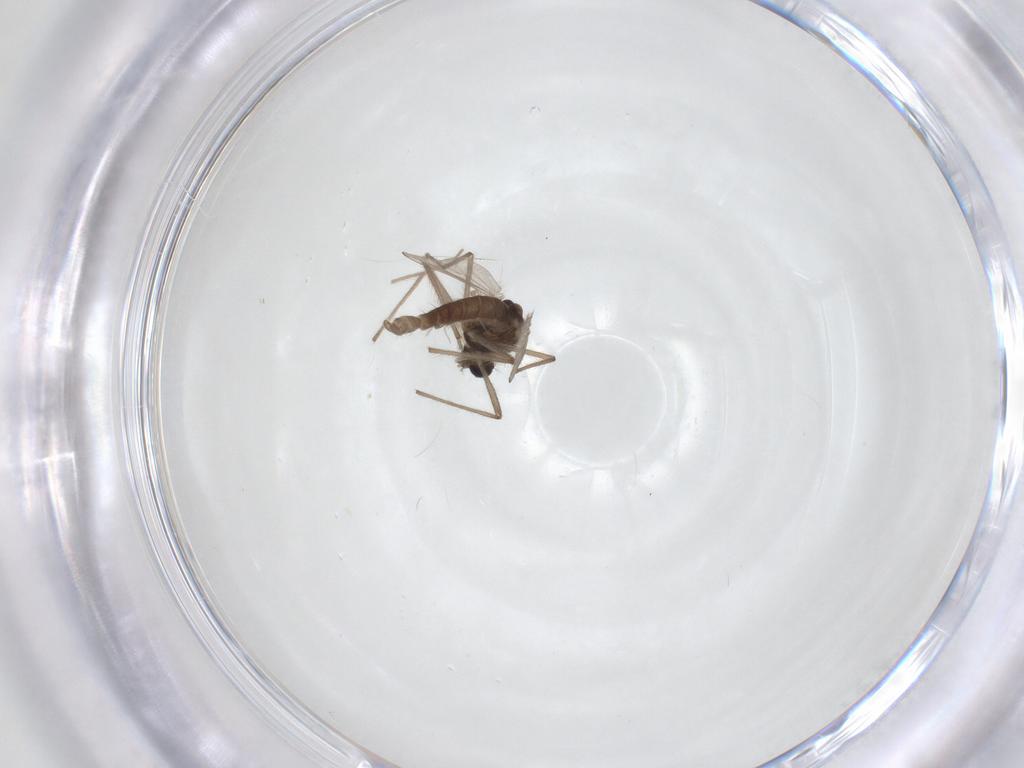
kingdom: Animalia
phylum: Arthropoda
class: Insecta
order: Diptera
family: Chironomidae
